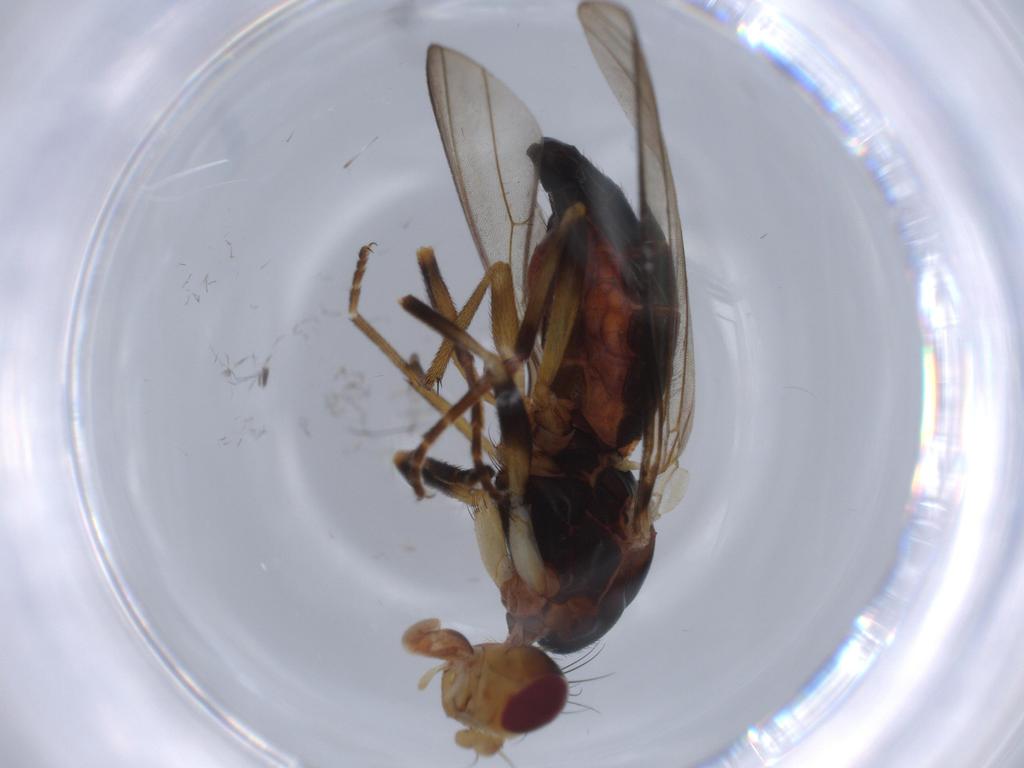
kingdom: Animalia
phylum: Arthropoda
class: Insecta
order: Diptera
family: Piophilidae
